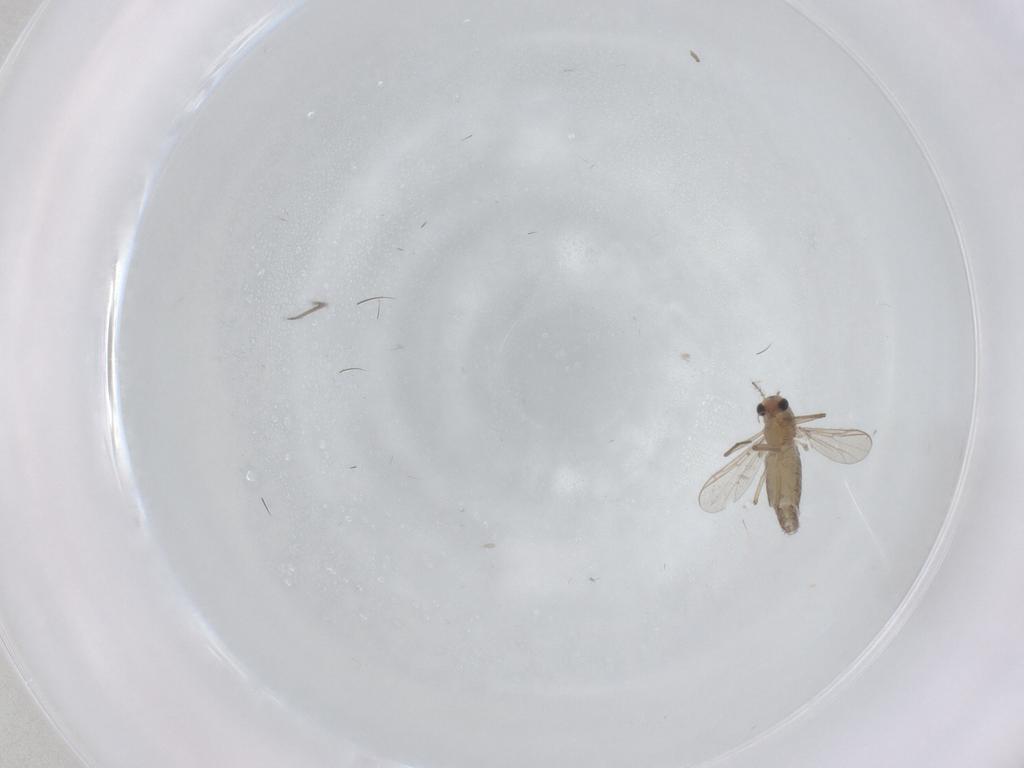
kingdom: Animalia
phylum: Arthropoda
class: Insecta
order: Diptera
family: Chironomidae
